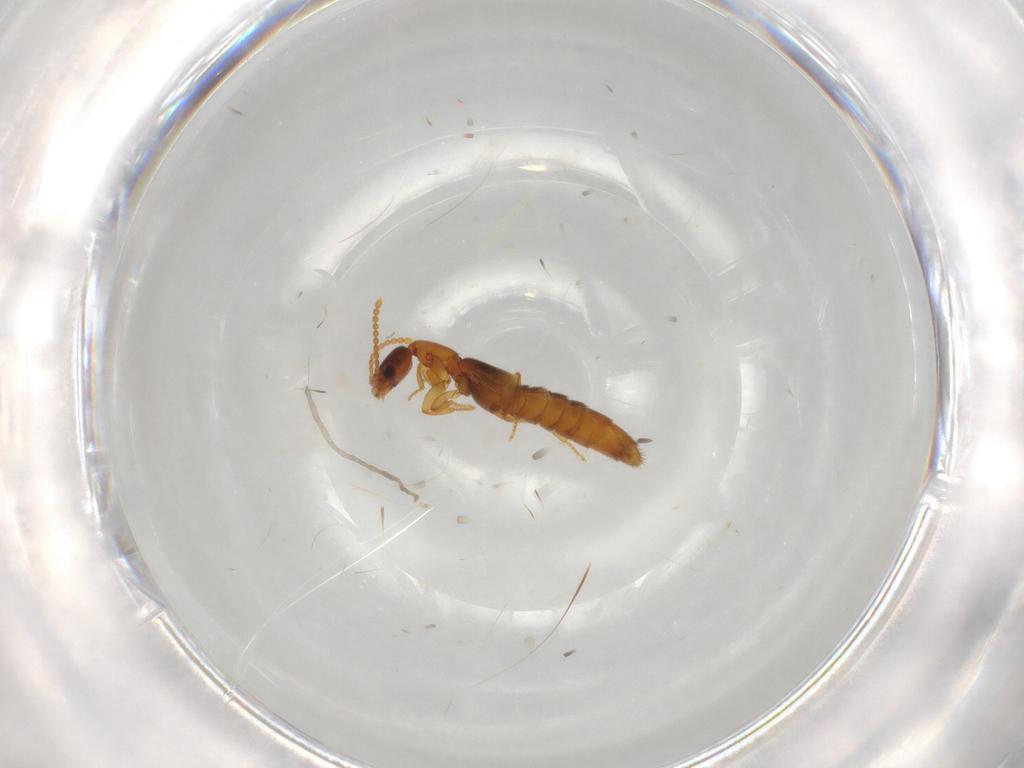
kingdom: Animalia
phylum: Arthropoda
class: Insecta
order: Coleoptera
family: Staphylinidae
